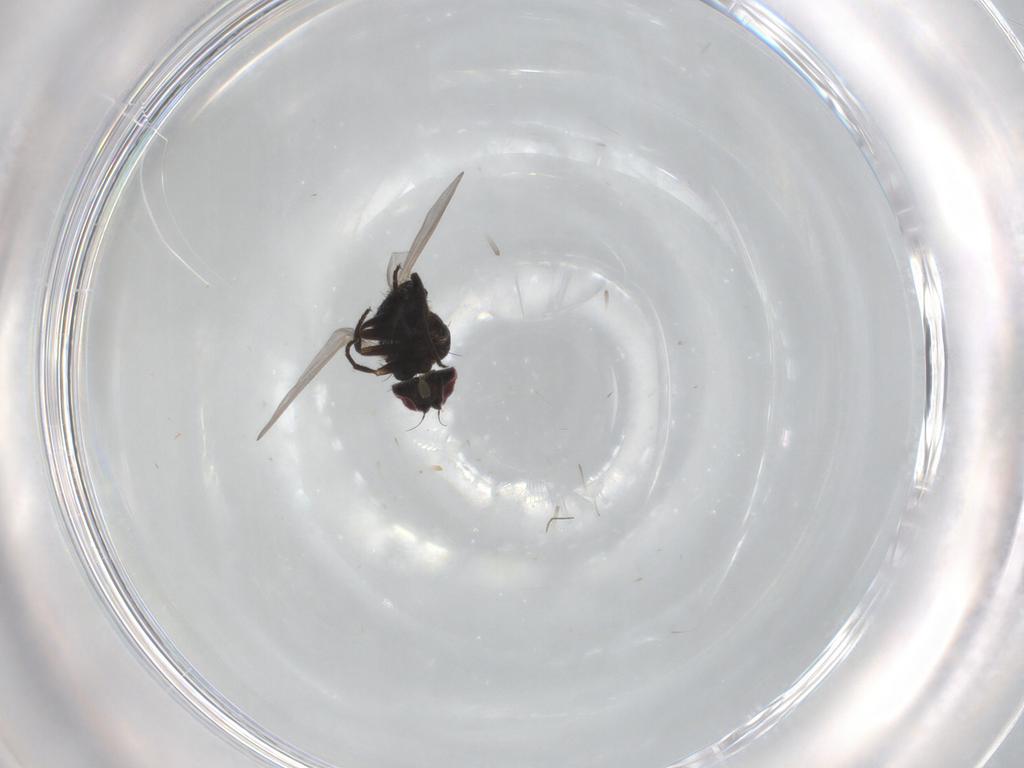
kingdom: Animalia
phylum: Arthropoda
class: Insecta
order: Diptera
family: Agromyzidae
